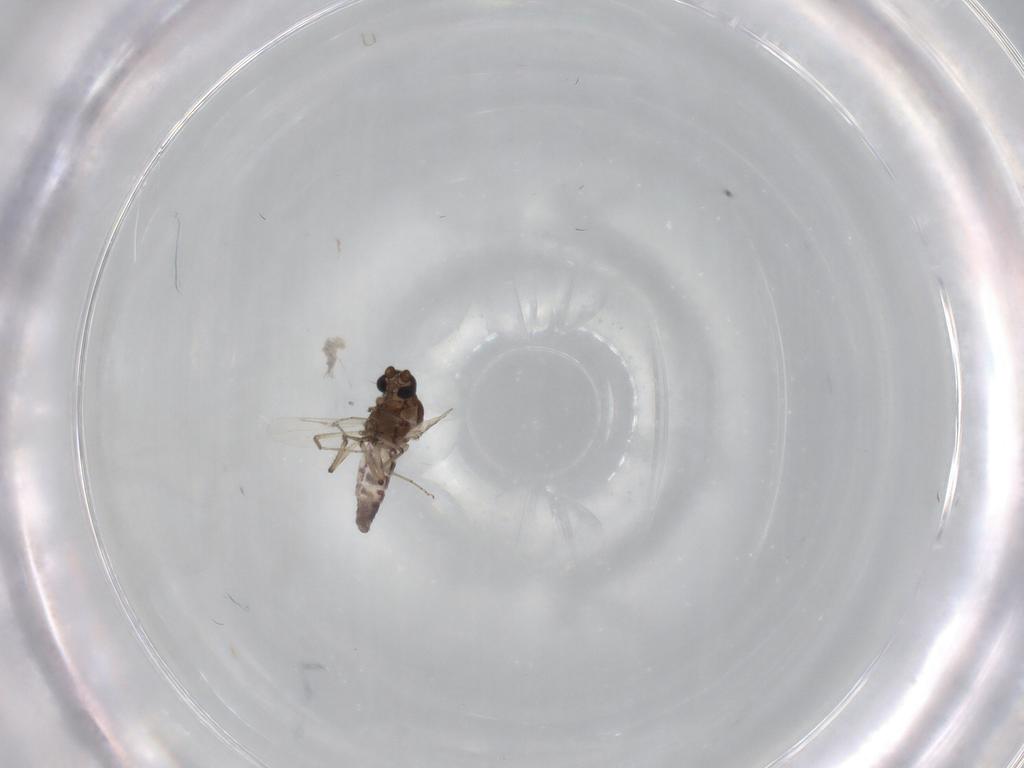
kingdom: Animalia
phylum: Arthropoda
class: Insecta
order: Diptera
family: Ceratopogonidae
